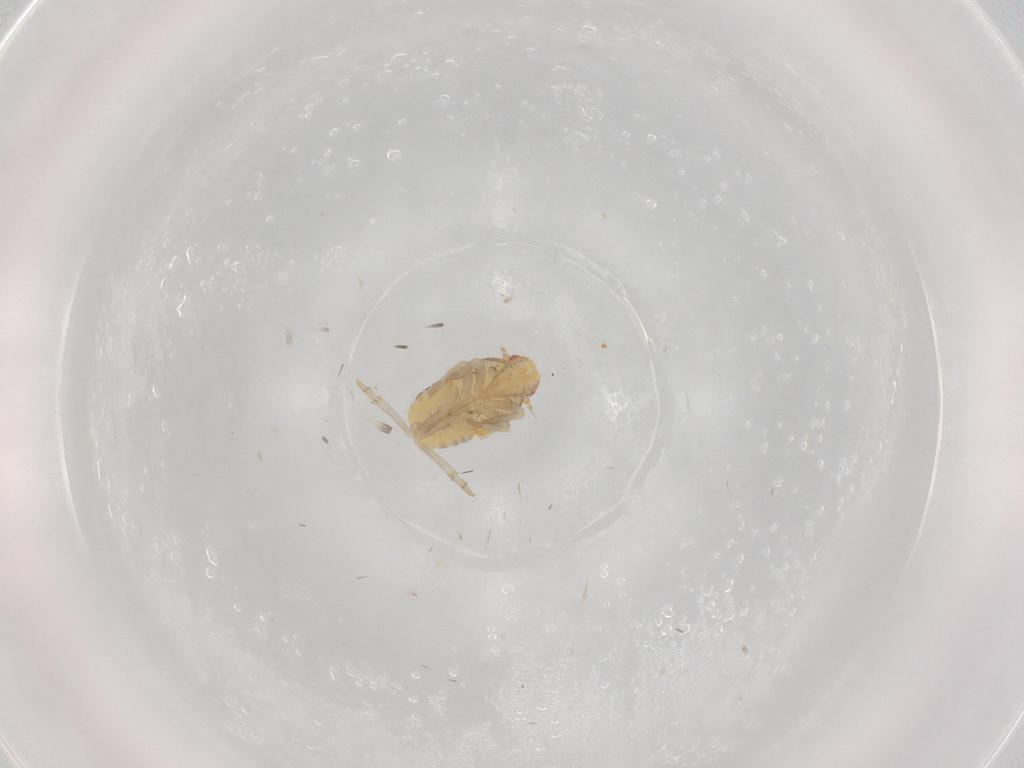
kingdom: Animalia
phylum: Arthropoda
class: Insecta
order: Hemiptera
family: Flatidae
